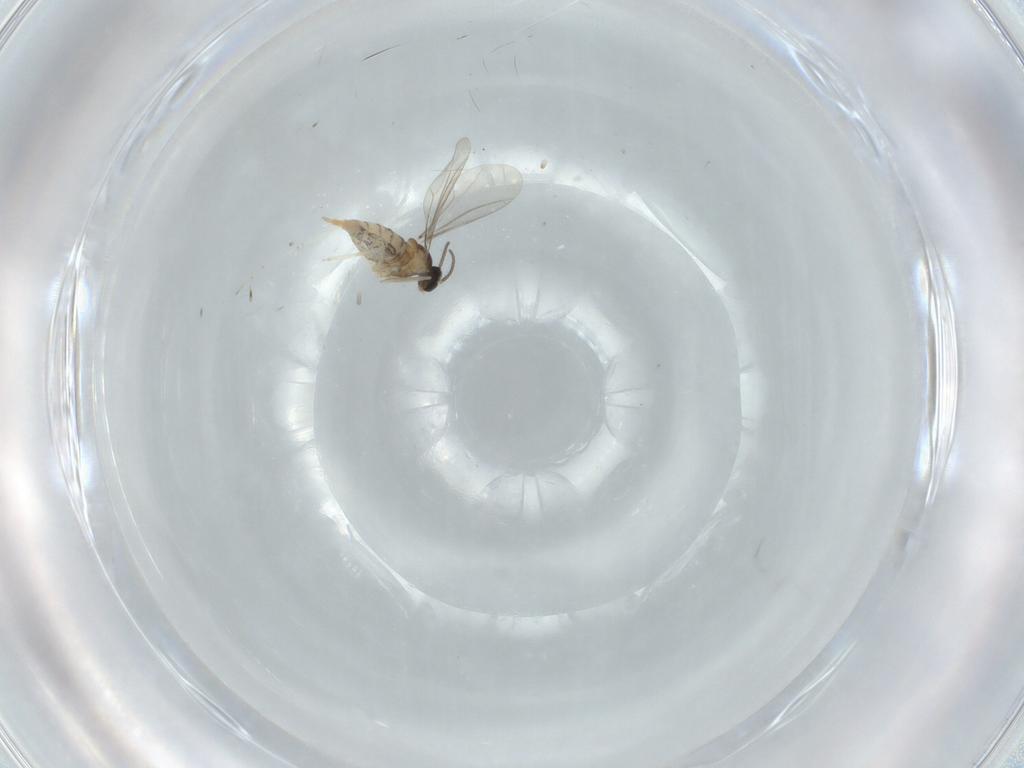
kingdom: Animalia
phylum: Arthropoda
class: Insecta
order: Diptera
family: Cecidomyiidae
